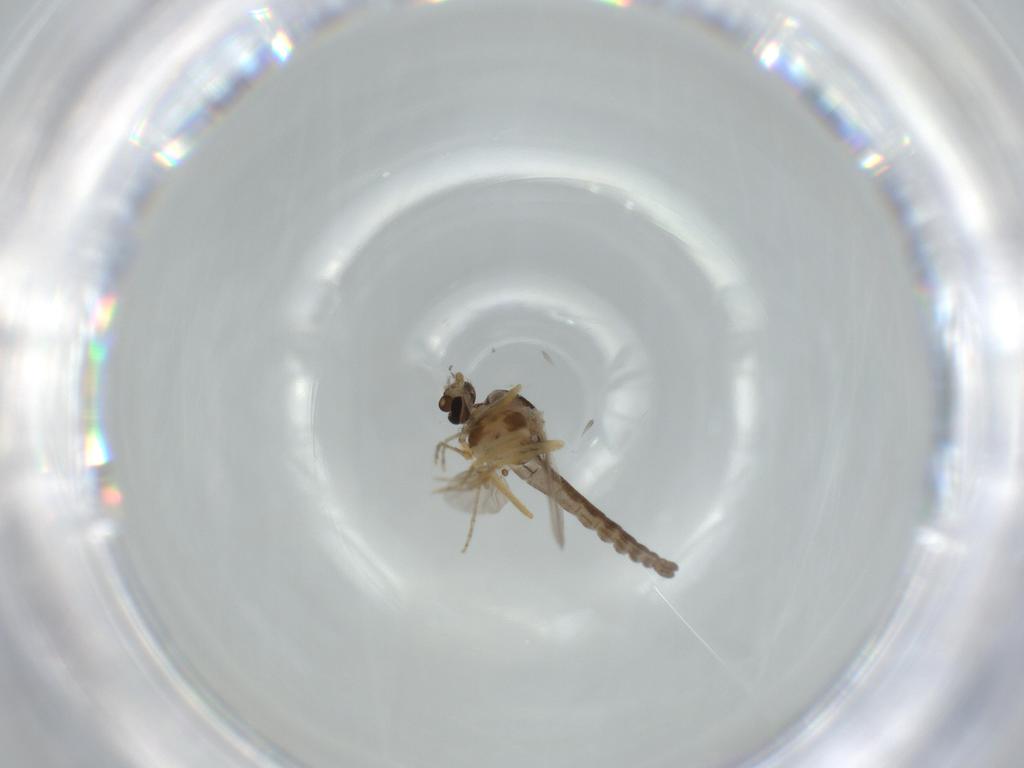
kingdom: Animalia
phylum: Arthropoda
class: Insecta
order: Diptera
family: Ceratopogonidae
